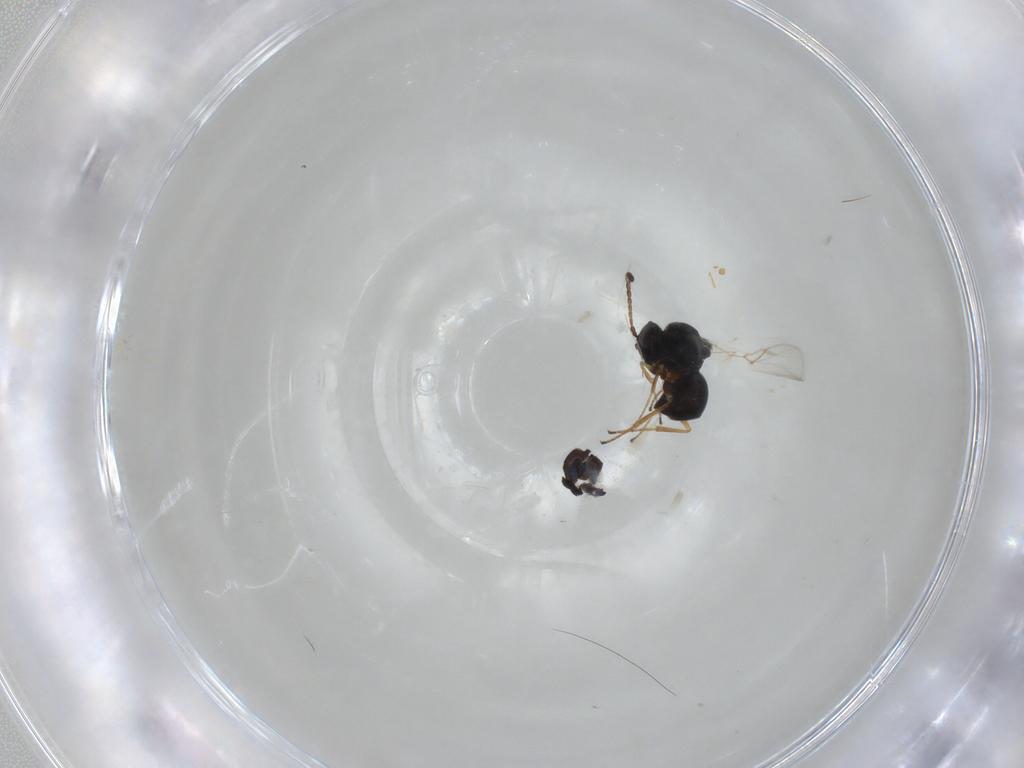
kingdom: Animalia
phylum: Arthropoda
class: Insecta
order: Hymenoptera
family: Figitidae
